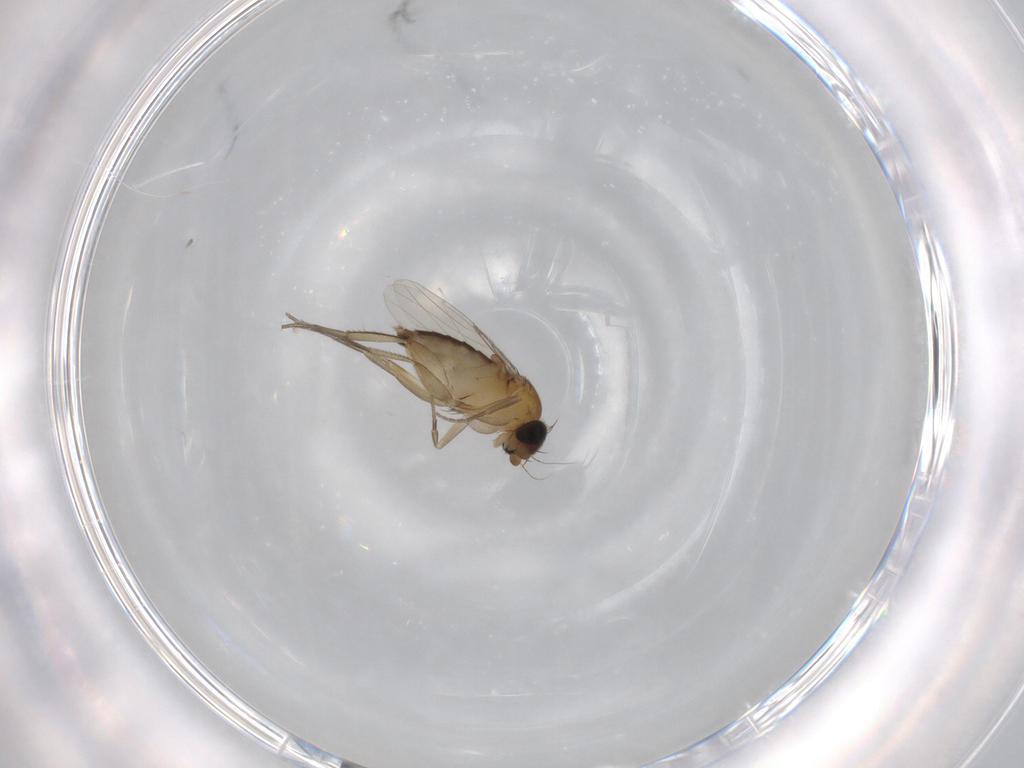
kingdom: Animalia
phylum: Arthropoda
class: Insecta
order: Diptera
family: Phoridae
